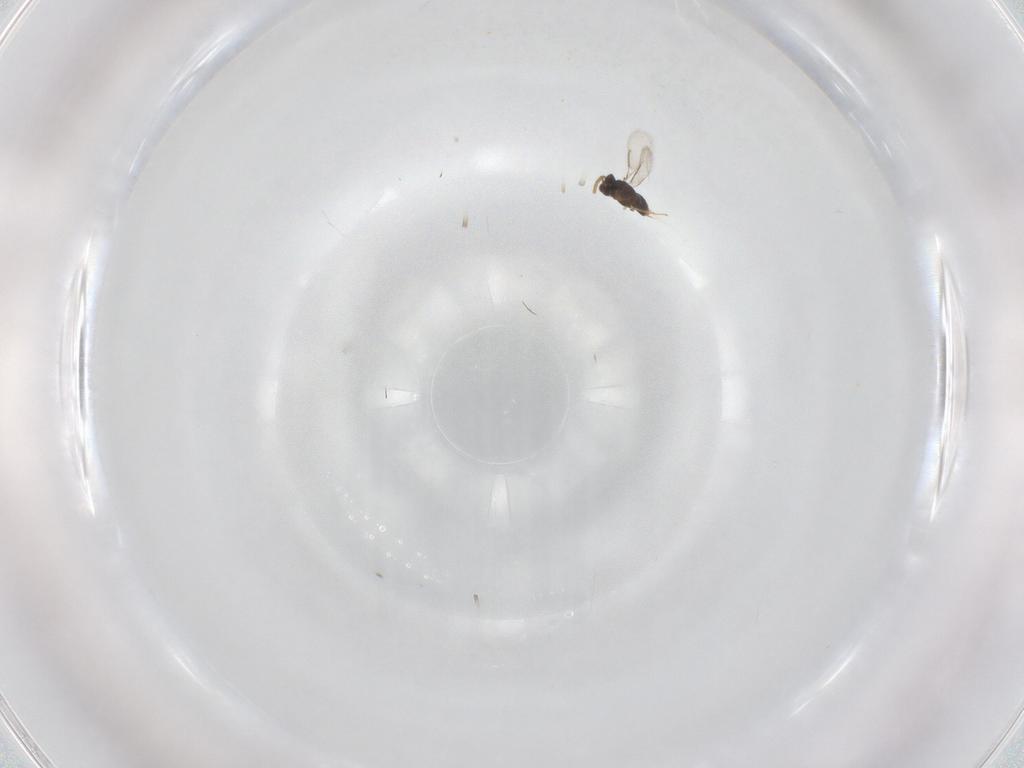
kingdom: Animalia
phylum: Arthropoda
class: Insecta
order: Hymenoptera
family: Aphelinidae
